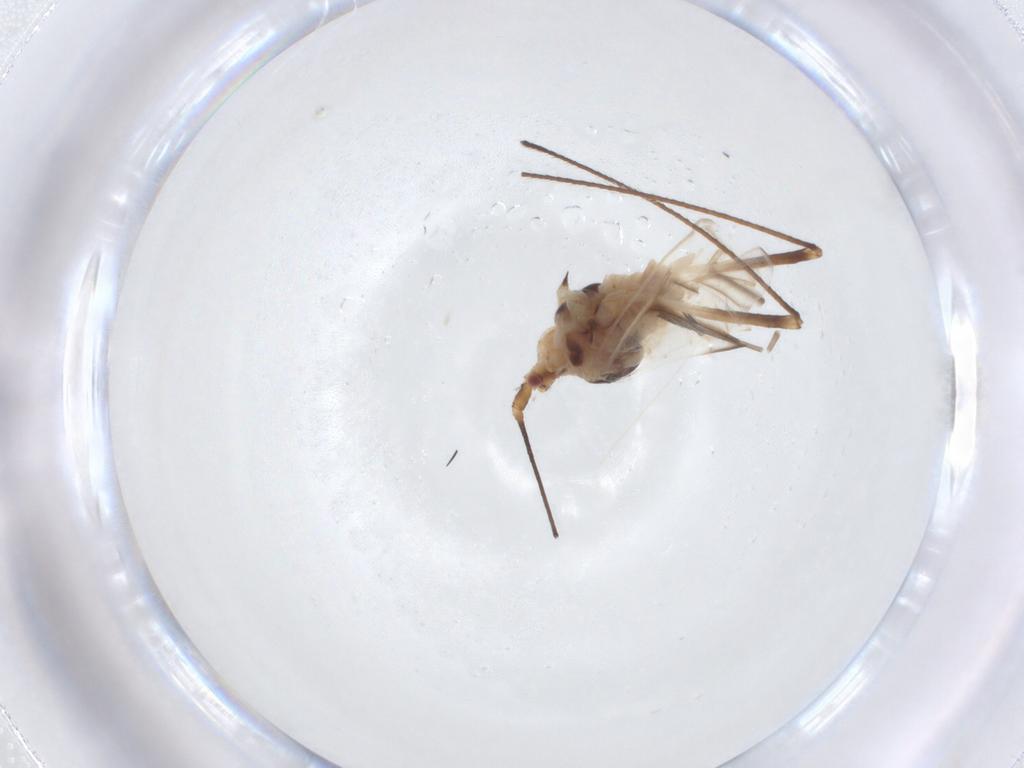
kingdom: Animalia
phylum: Arthropoda
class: Insecta
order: Hemiptera
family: Aphididae
